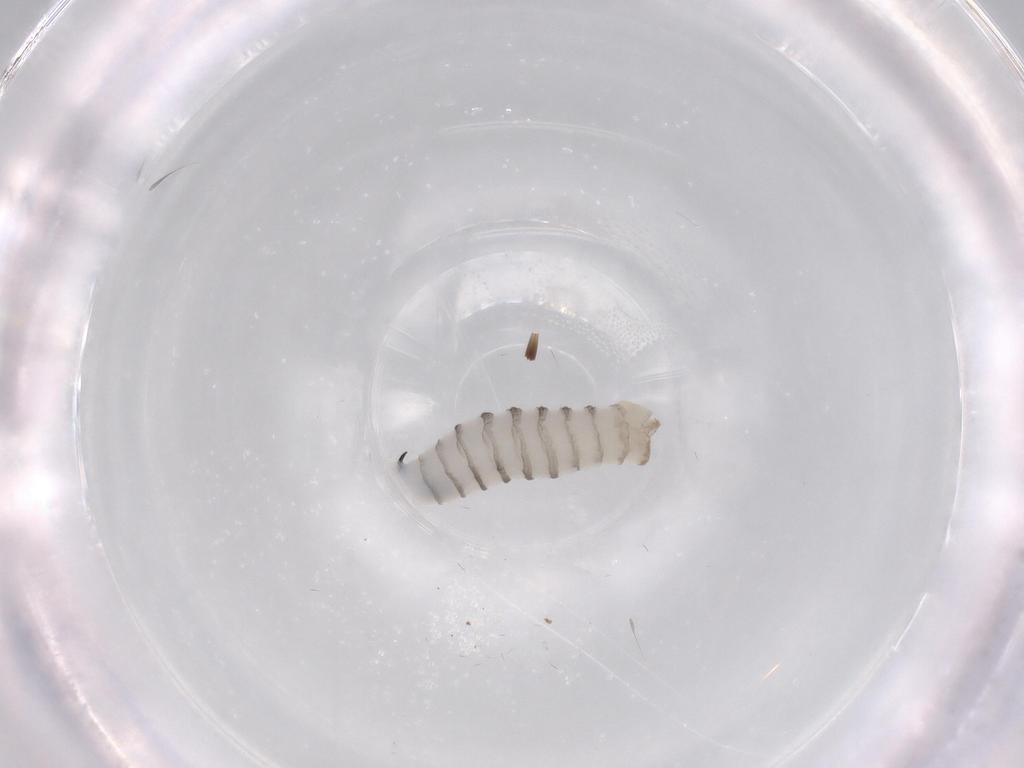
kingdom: Animalia
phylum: Arthropoda
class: Insecta
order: Diptera
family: Sarcophagidae
